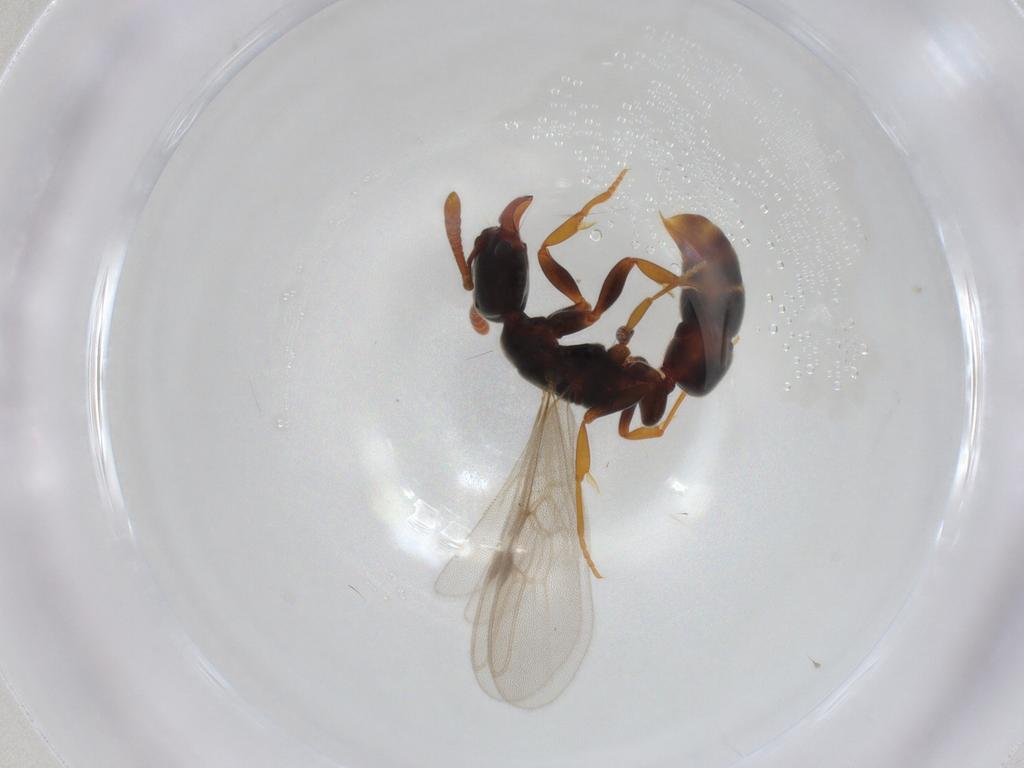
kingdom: Animalia
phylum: Arthropoda
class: Insecta
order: Hymenoptera
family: Formicidae
